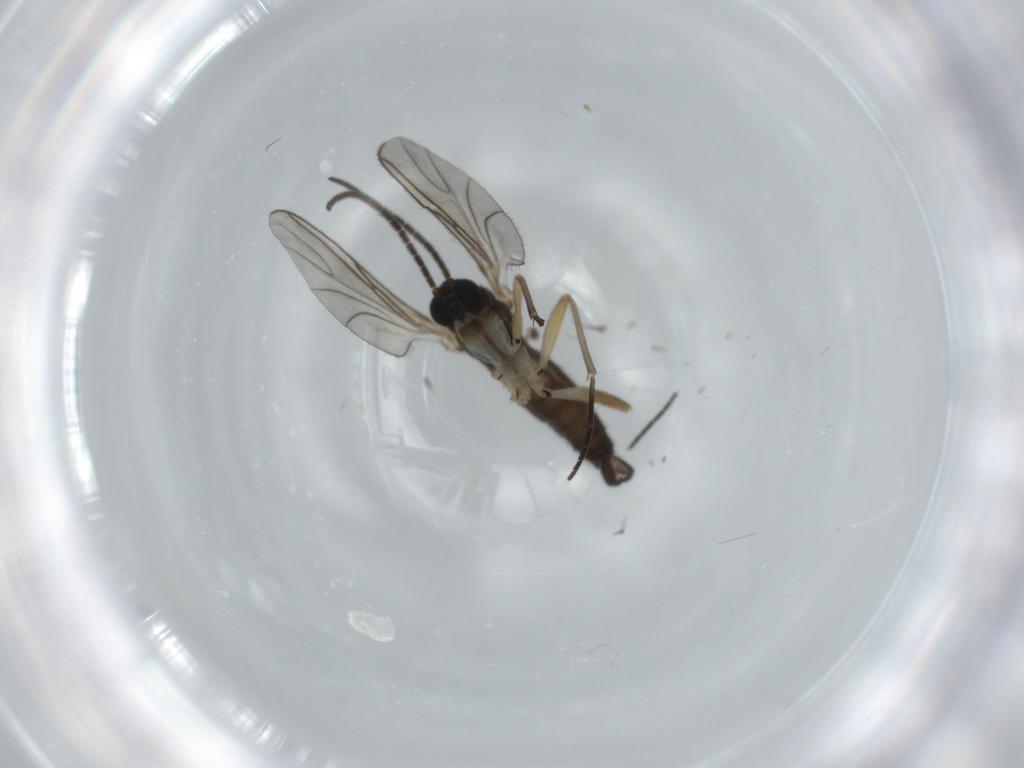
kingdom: Animalia
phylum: Arthropoda
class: Insecta
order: Diptera
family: Sciaridae
